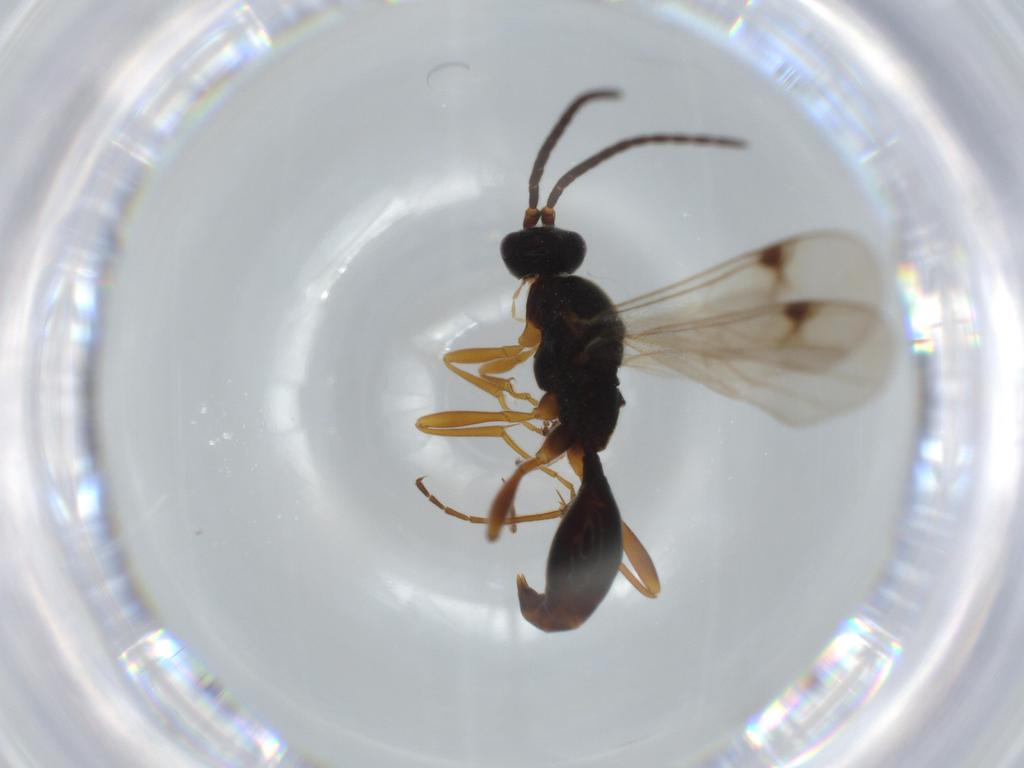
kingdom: Animalia
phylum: Arthropoda
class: Insecta
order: Hymenoptera
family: Proctotrupidae
